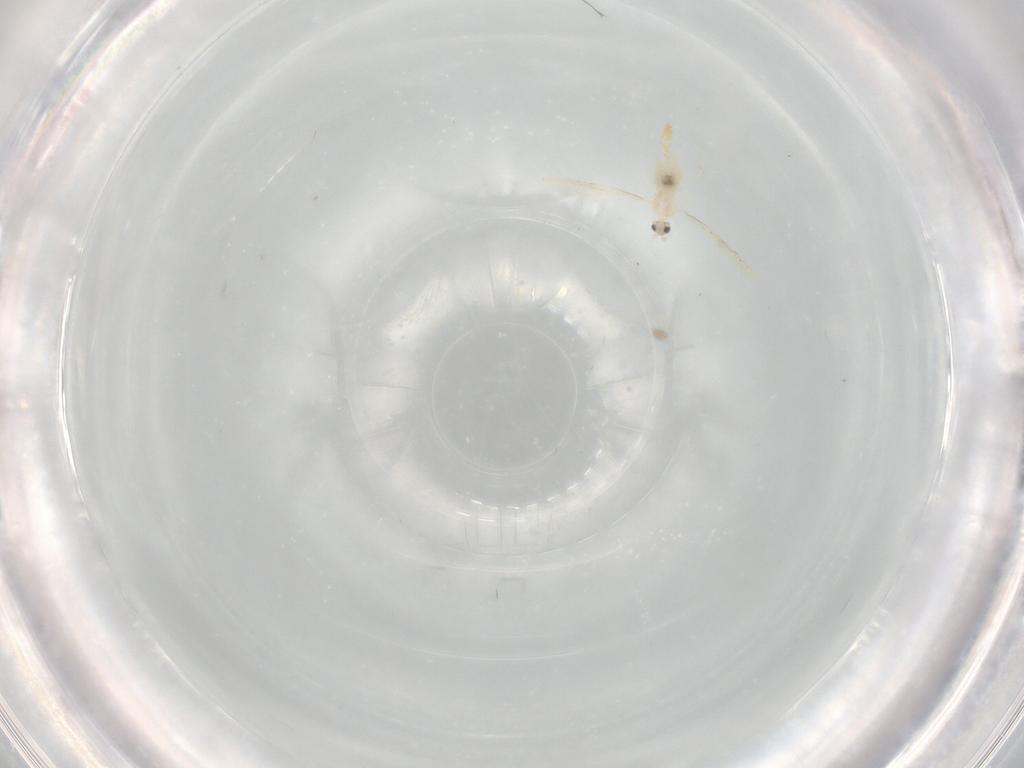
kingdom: Animalia
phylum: Arthropoda
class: Insecta
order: Diptera
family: Cecidomyiidae
